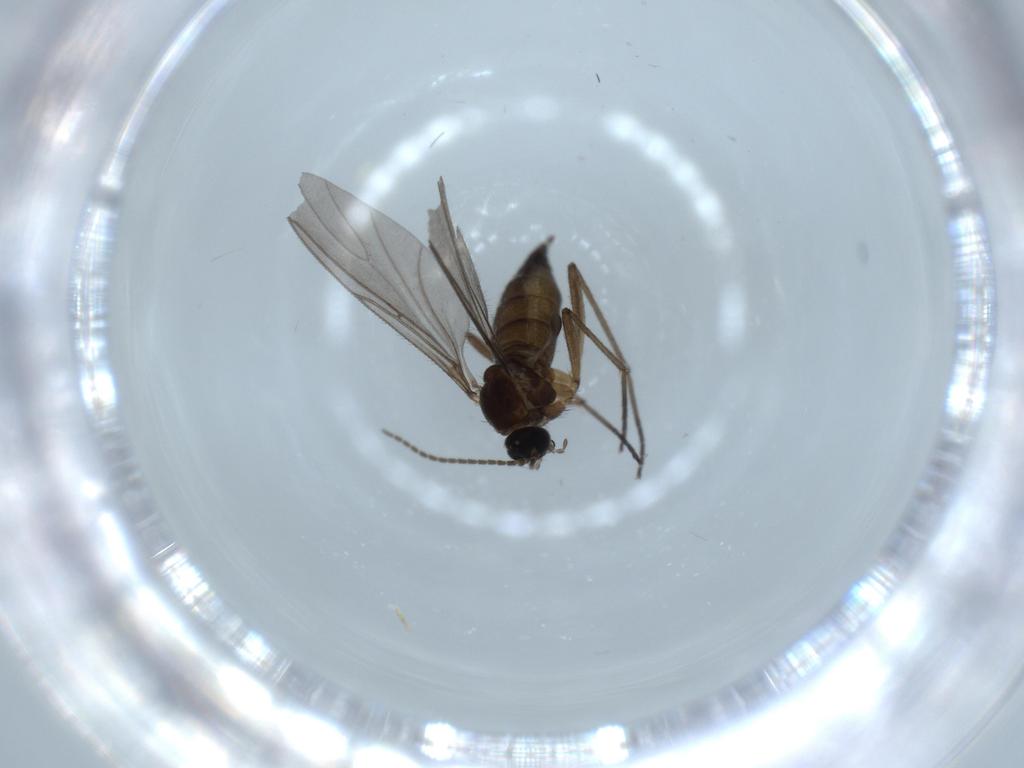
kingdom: Animalia
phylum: Arthropoda
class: Insecta
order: Diptera
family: Sciaridae
